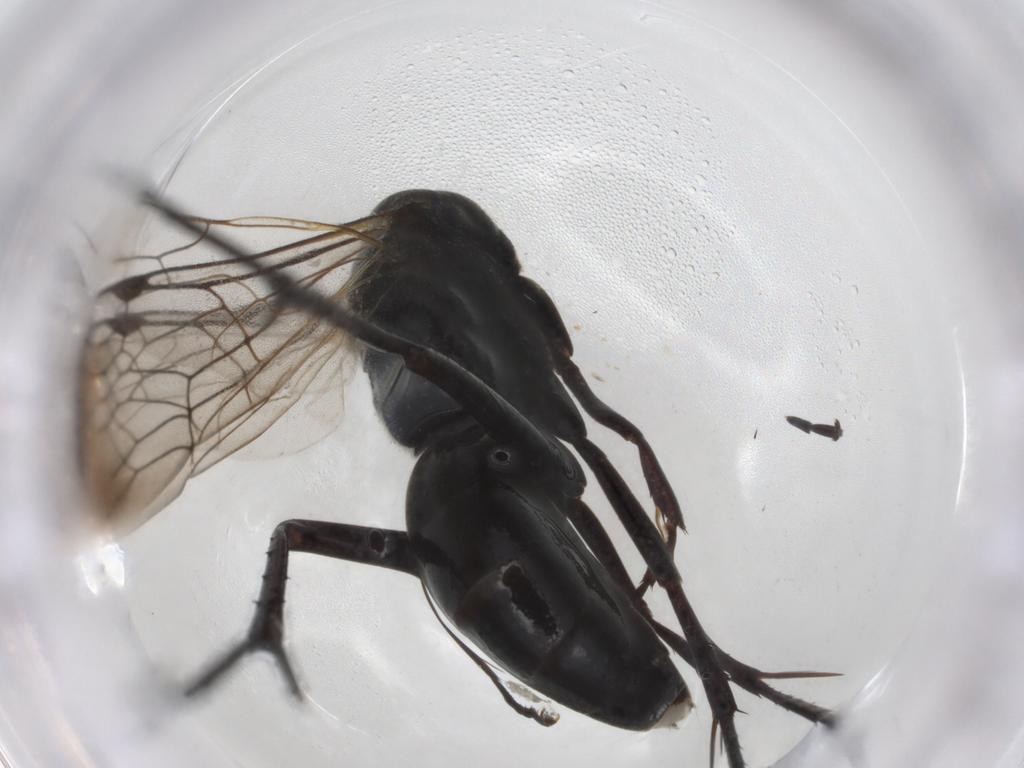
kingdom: Animalia
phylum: Arthropoda
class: Insecta
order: Hymenoptera
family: Pompilidae
